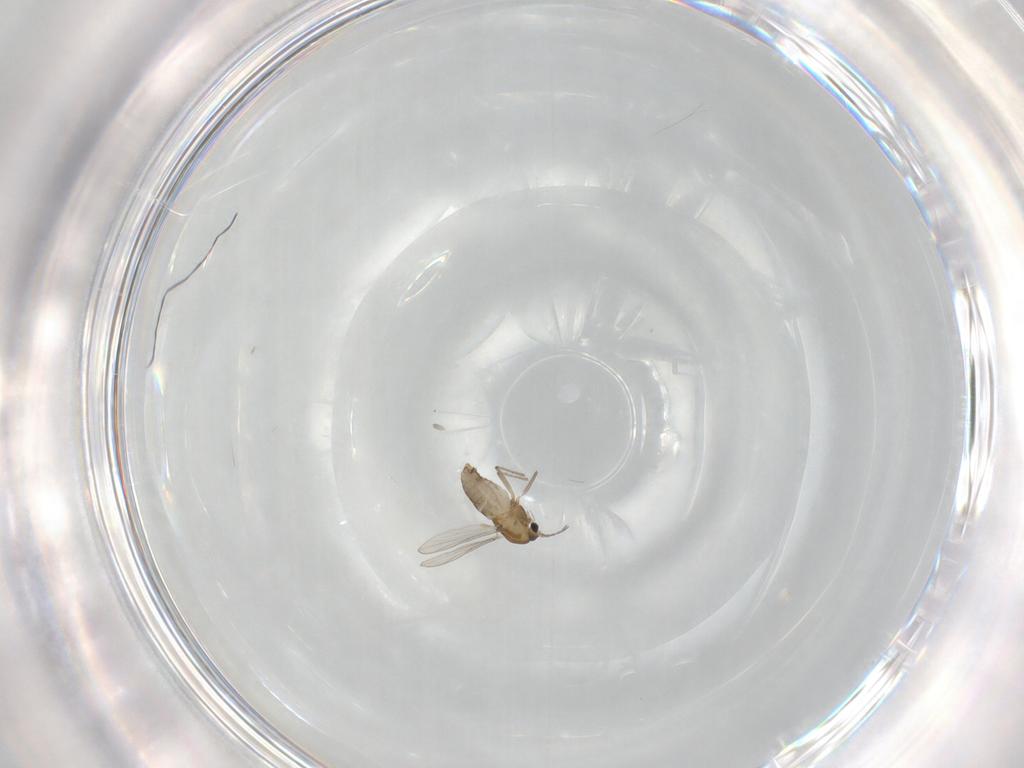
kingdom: Animalia
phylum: Arthropoda
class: Insecta
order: Diptera
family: Chironomidae
